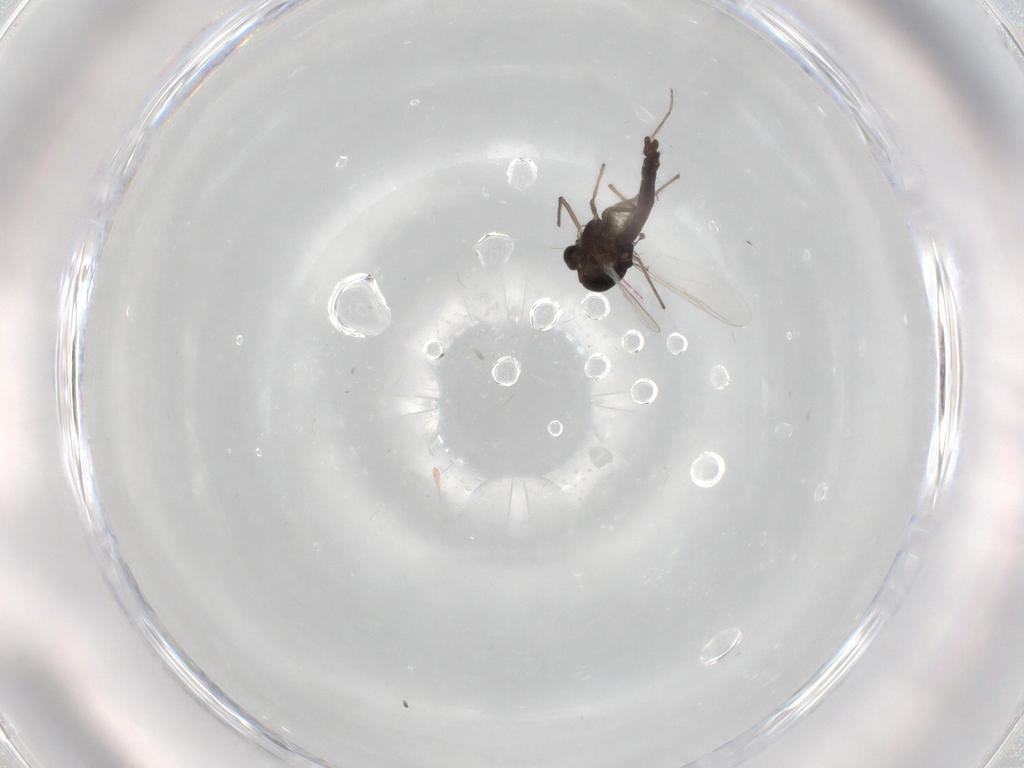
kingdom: Animalia
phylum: Arthropoda
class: Insecta
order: Diptera
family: Chironomidae
